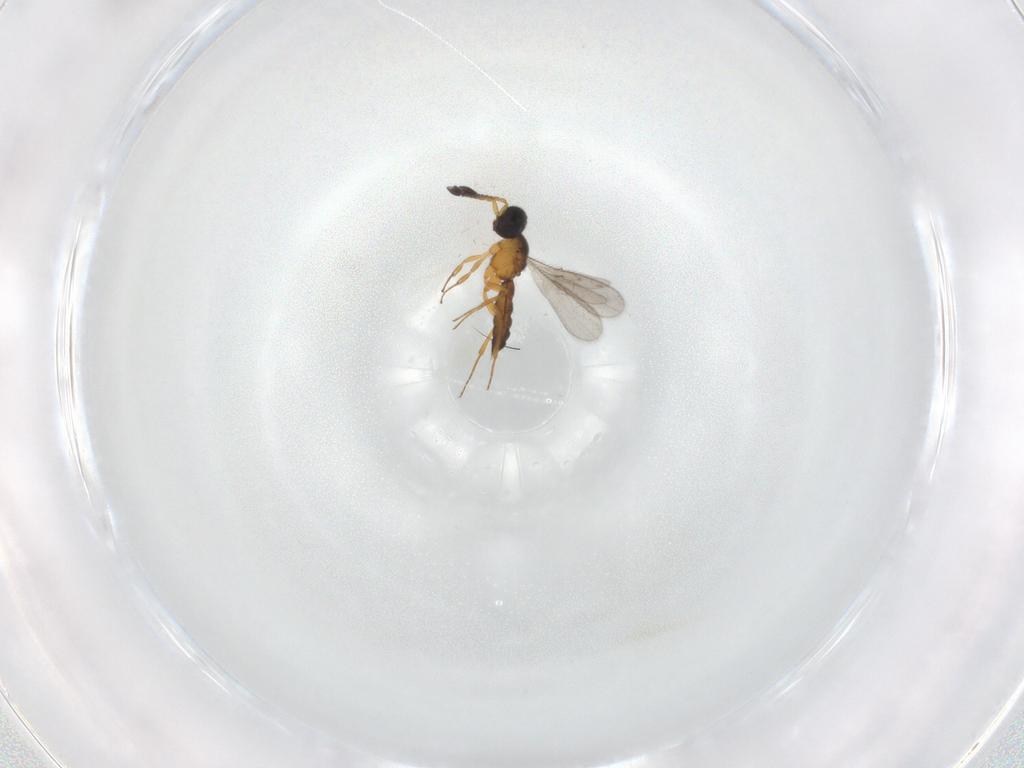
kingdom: Animalia
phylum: Arthropoda
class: Insecta
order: Hymenoptera
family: Scelionidae
